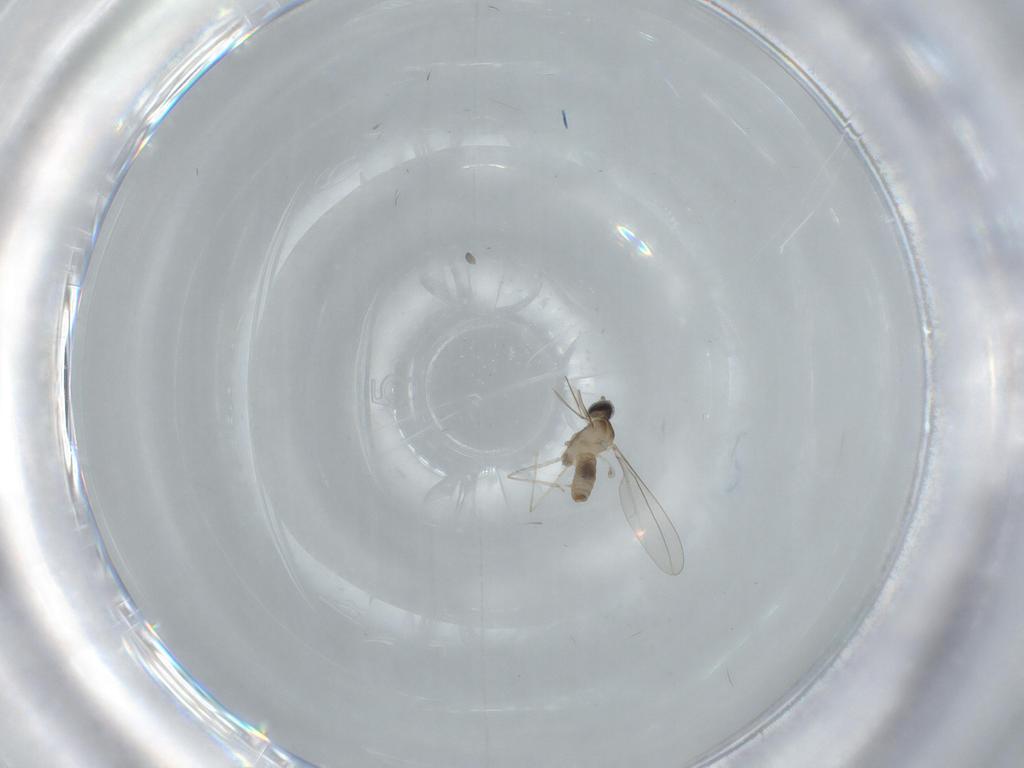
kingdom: Animalia
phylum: Arthropoda
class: Insecta
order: Diptera
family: Cecidomyiidae
